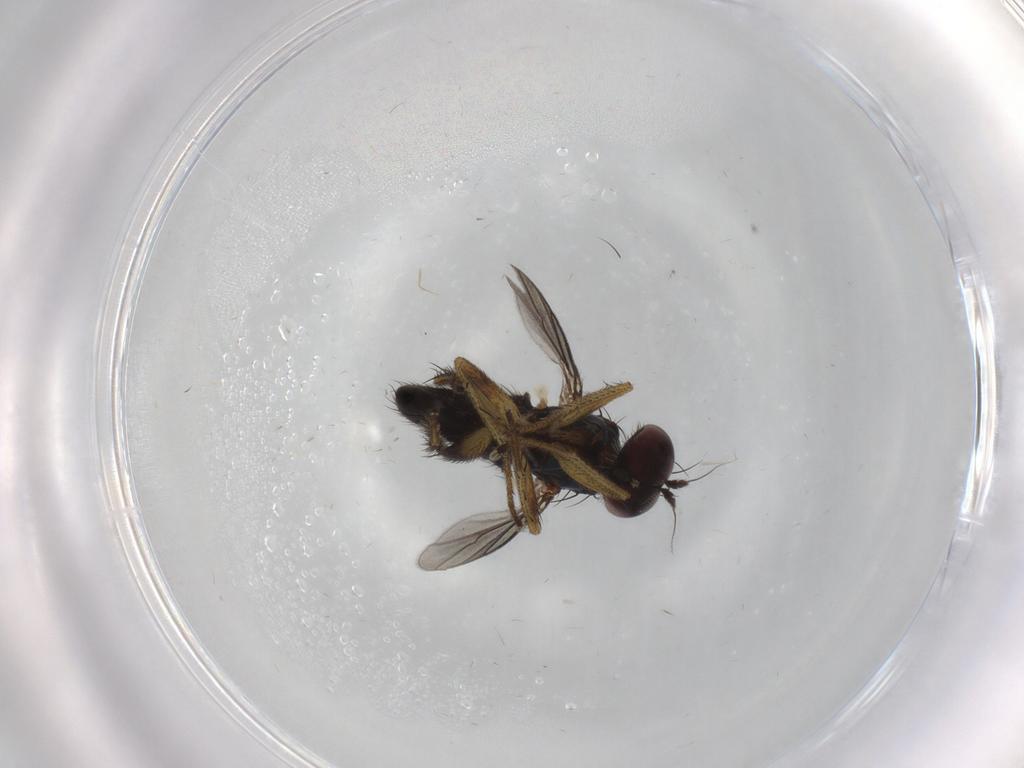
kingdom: Animalia
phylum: Arthropoda
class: Insecta
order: Diptera
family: Dolichopodidae
